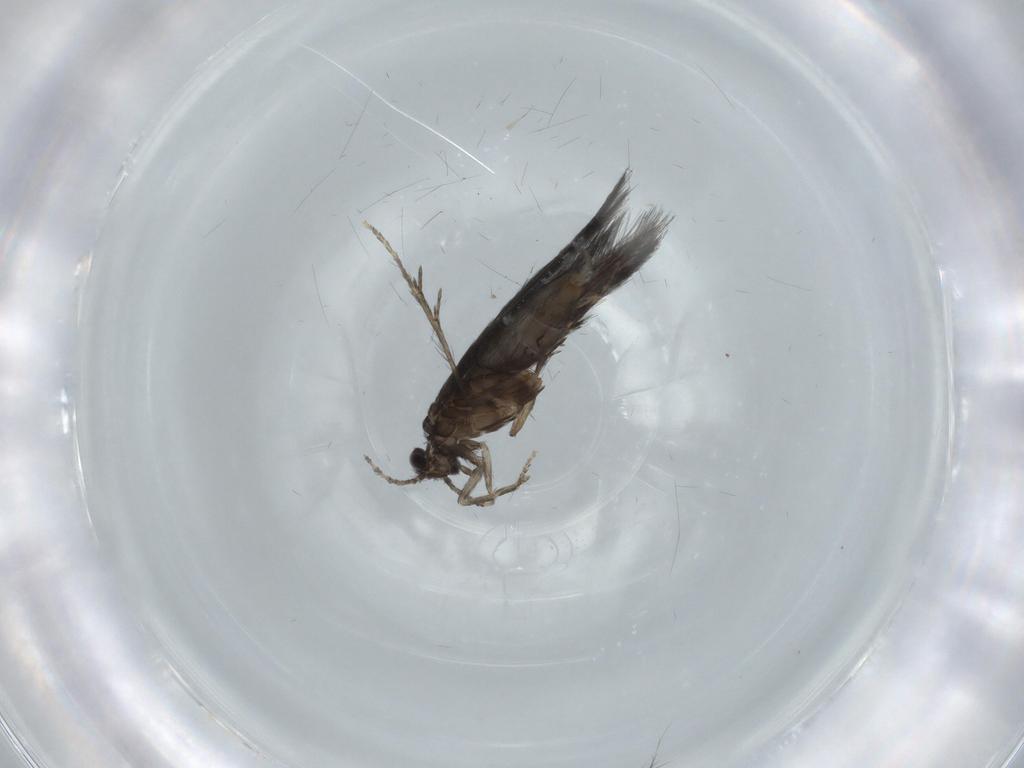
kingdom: Animalia
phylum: Arthropoda
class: Insecta
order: Trichoptera
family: Hydroptilidae
